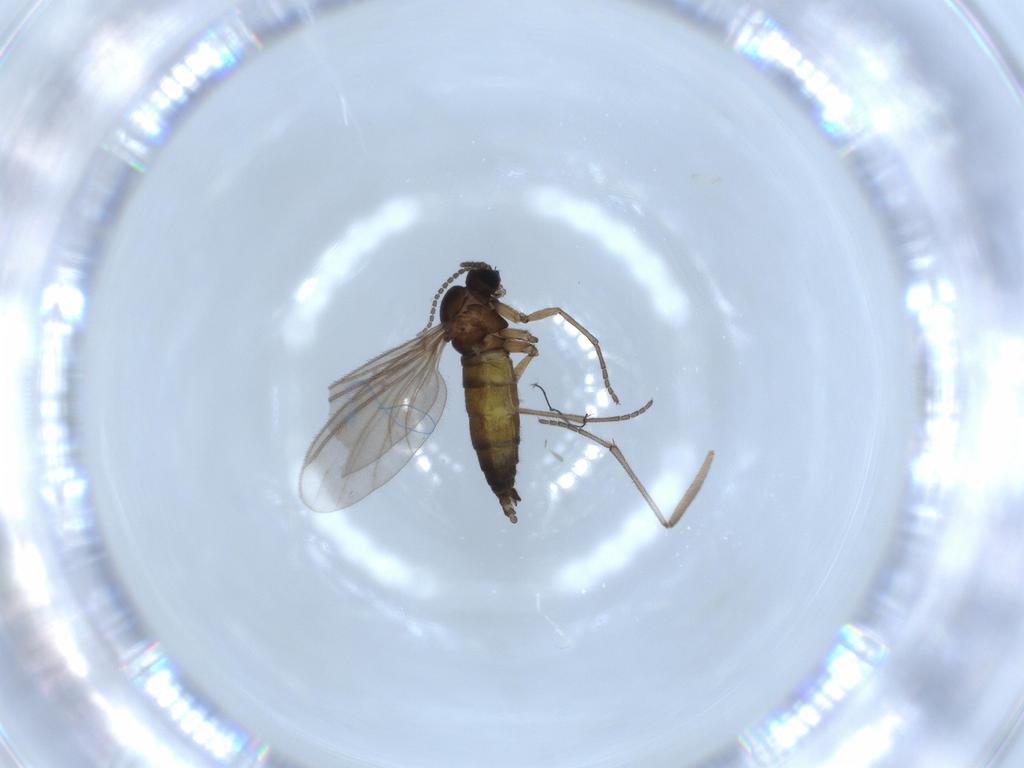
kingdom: Animalia
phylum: Arthropoda
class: Insecta
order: Diptera
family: Sciaridae
